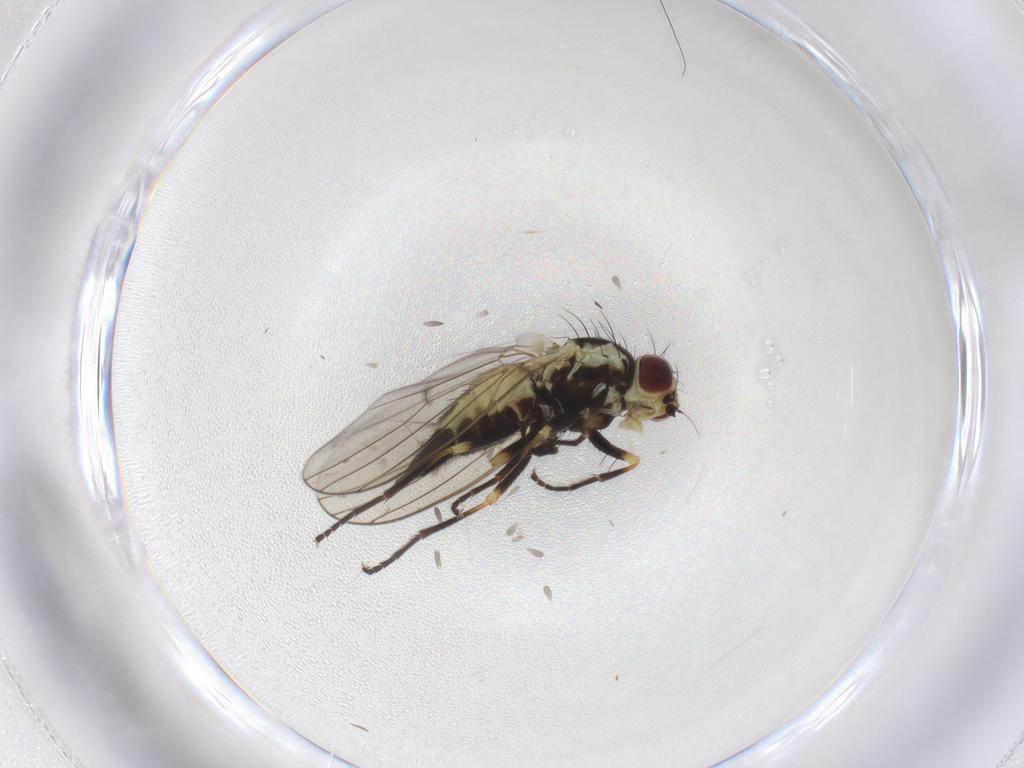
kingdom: Animalia
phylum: Arthropoda
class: Insecta
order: Diptera
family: Agromyzidae
